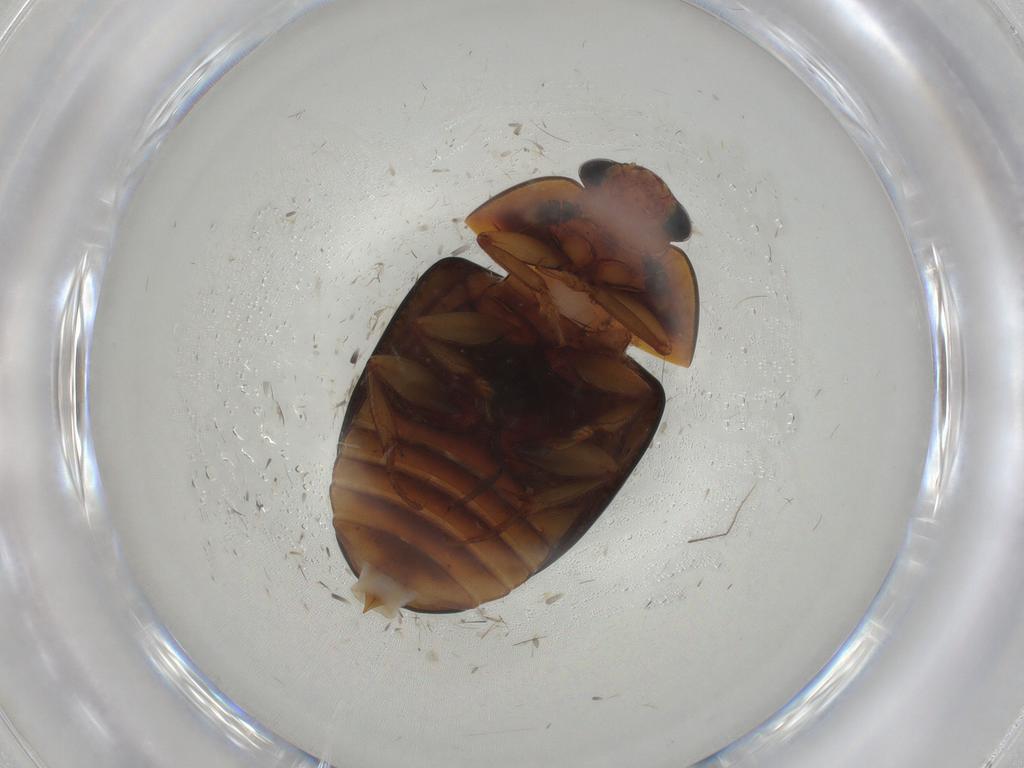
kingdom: Animalia
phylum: Arthropoda
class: Insecta
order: Coleoptera
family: Nitidulidae
